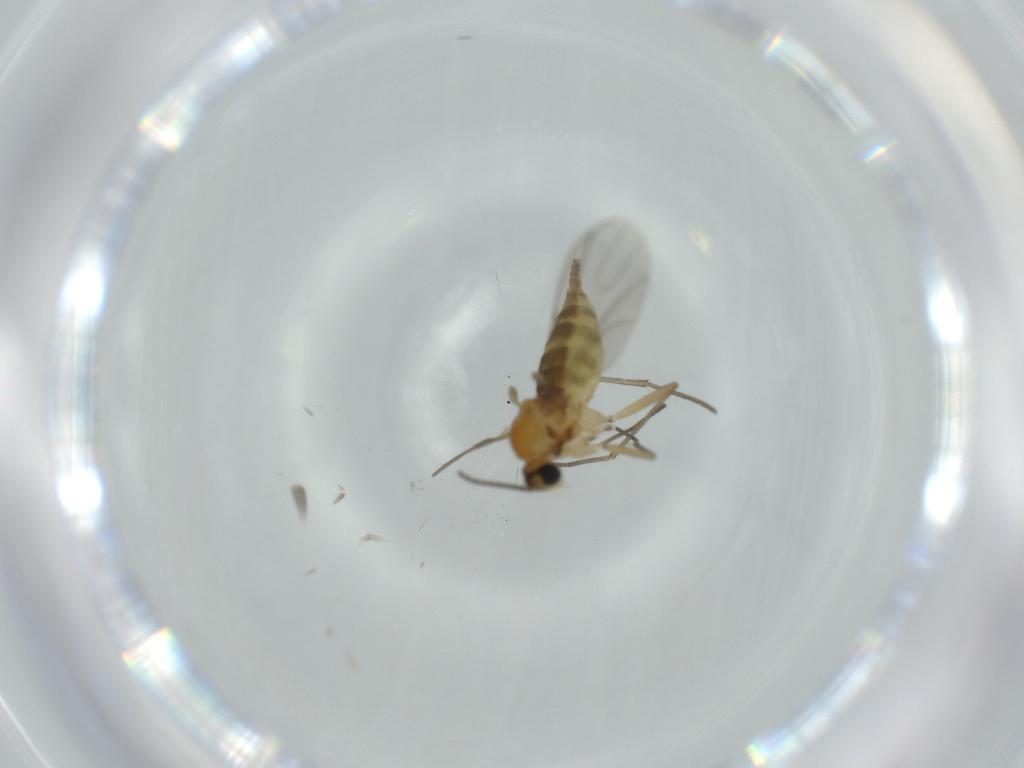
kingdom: Animalia
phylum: Arthropoda
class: Insecta
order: Diptera
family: Chironomidae
